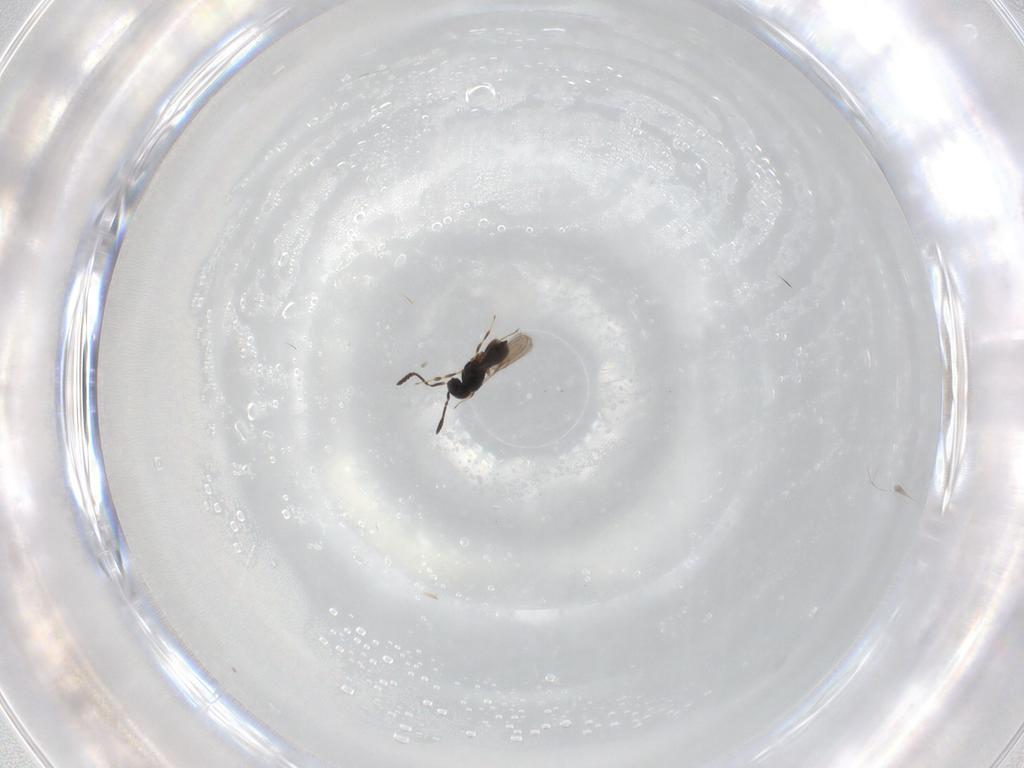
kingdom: Animalia
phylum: Arthropoda
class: Insecta
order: Hymenoptera
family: Scelionidae
